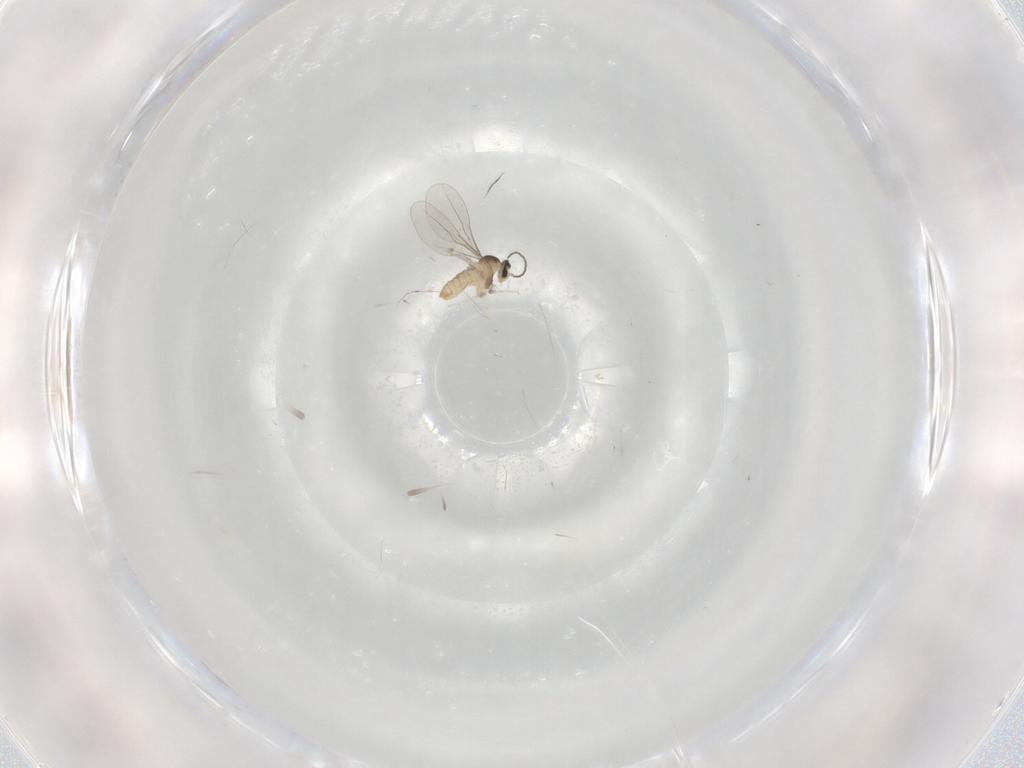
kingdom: Animalia
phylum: Arthropoda
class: Insecta
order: Diptera
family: Cecidomyiidae
